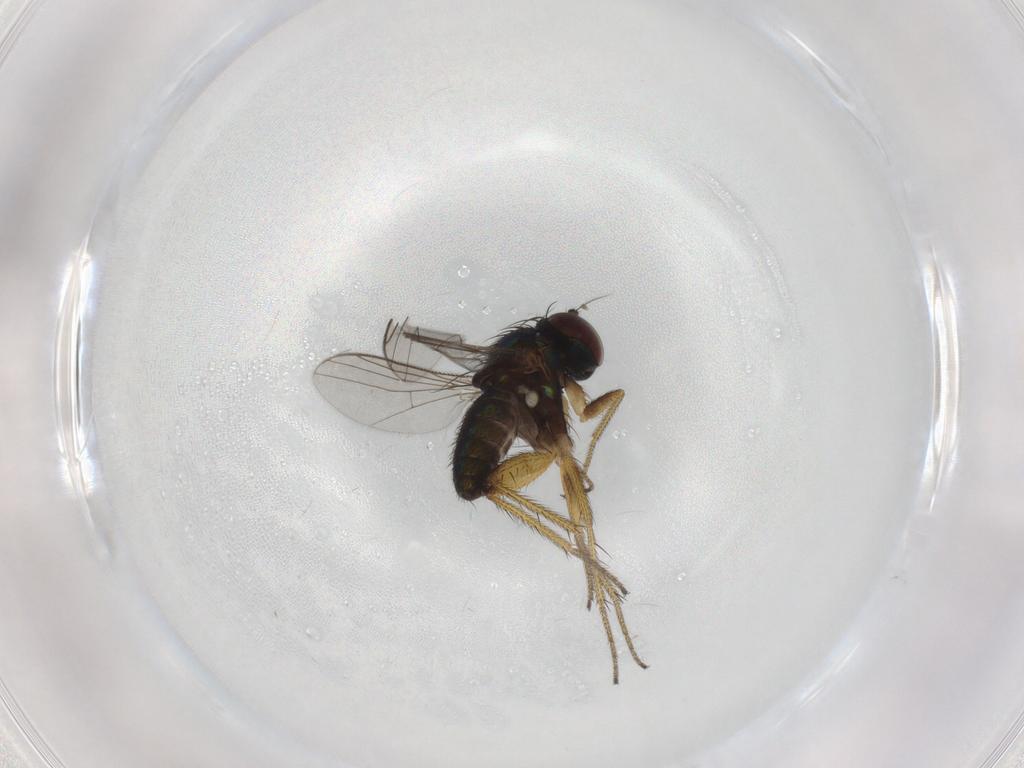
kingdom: Animalia
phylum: Arthropoda
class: Insecta
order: Diptera
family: Dolichopodidae
